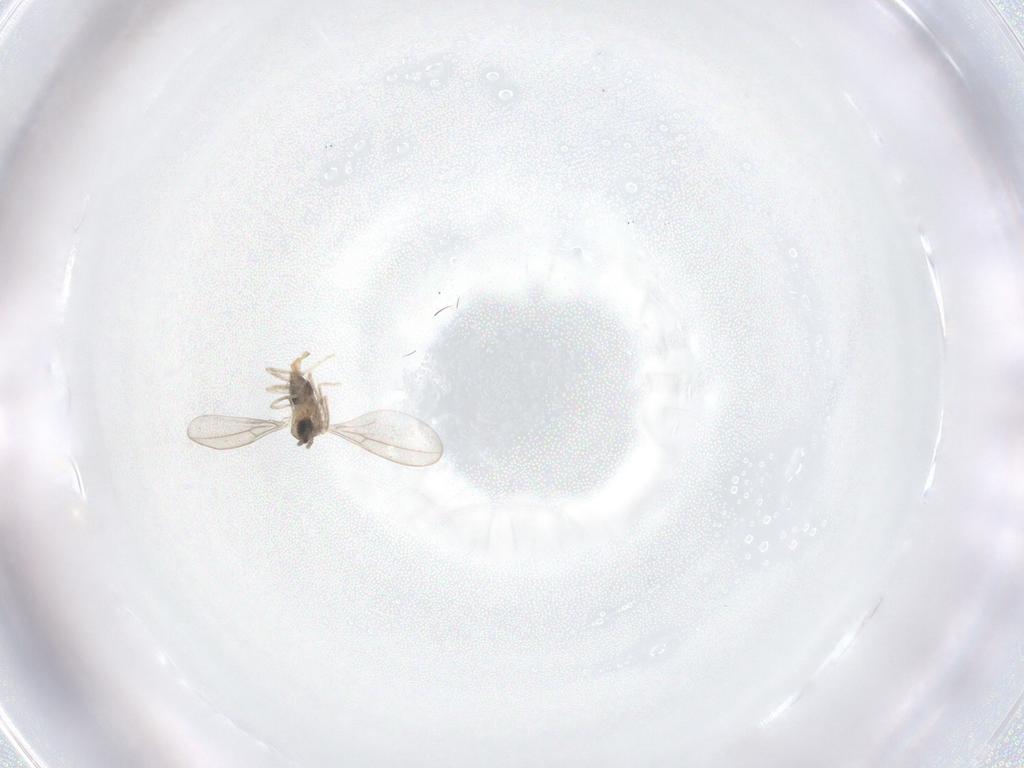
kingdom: Animalia
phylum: Arthropoda
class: Insecta
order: Diptera
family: Cecidomyiidae
